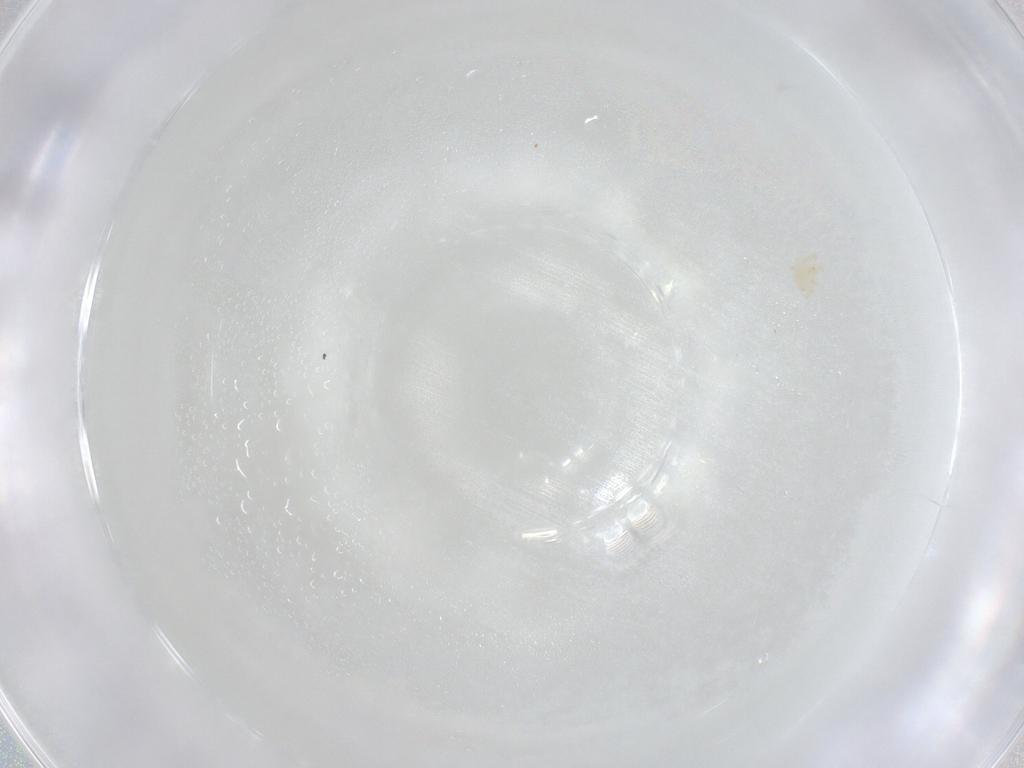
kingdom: Animalia
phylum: Arthropoda
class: Arachnida
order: Mesostigmata
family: Phytoseiidae
